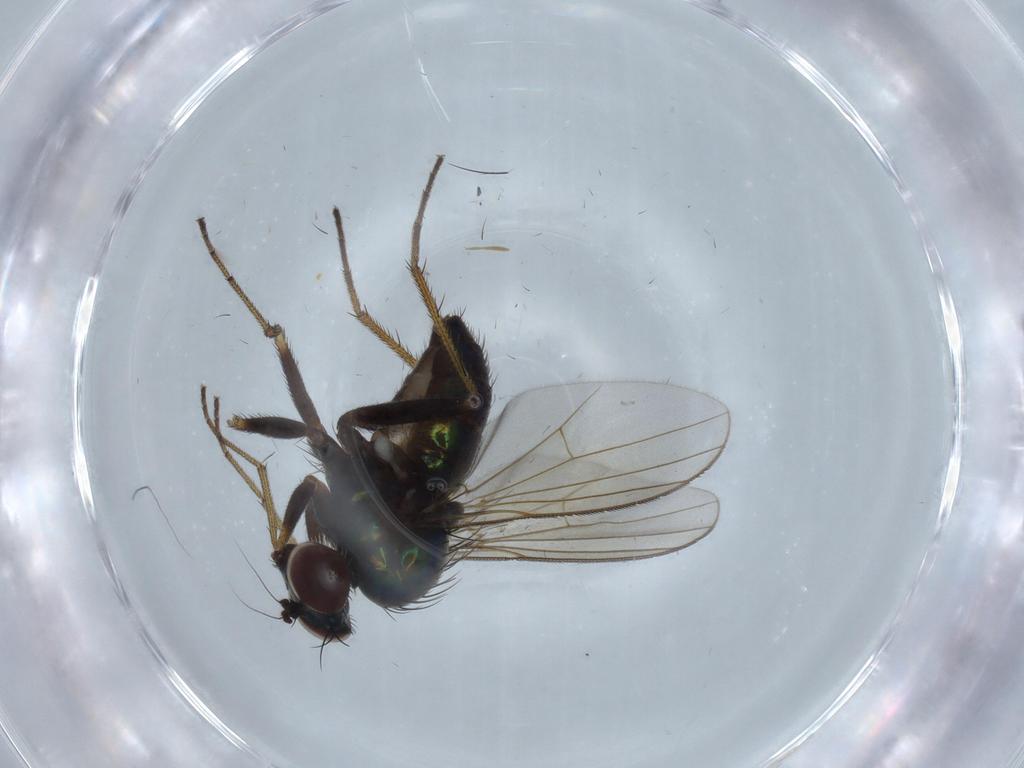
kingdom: Animalia
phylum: Arthropoda
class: Insecta
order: Diptera
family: Dolichopodidae
